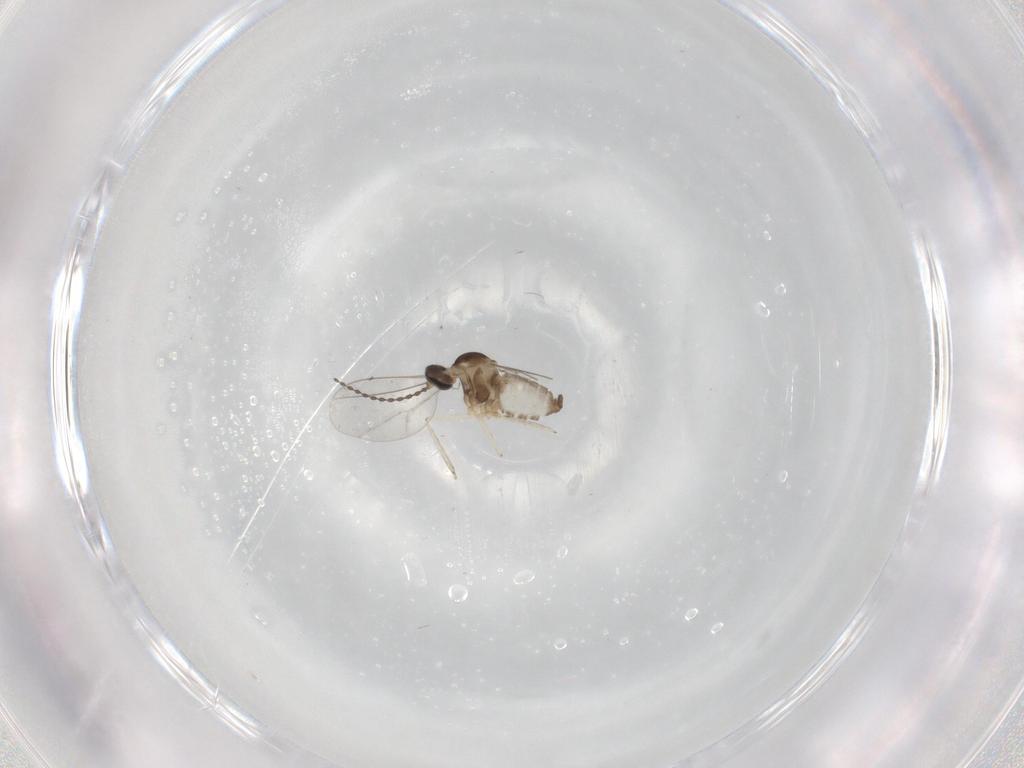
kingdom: Animalia
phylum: Arthropoda
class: Insecta
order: Diptera
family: Cecidomyiidae
